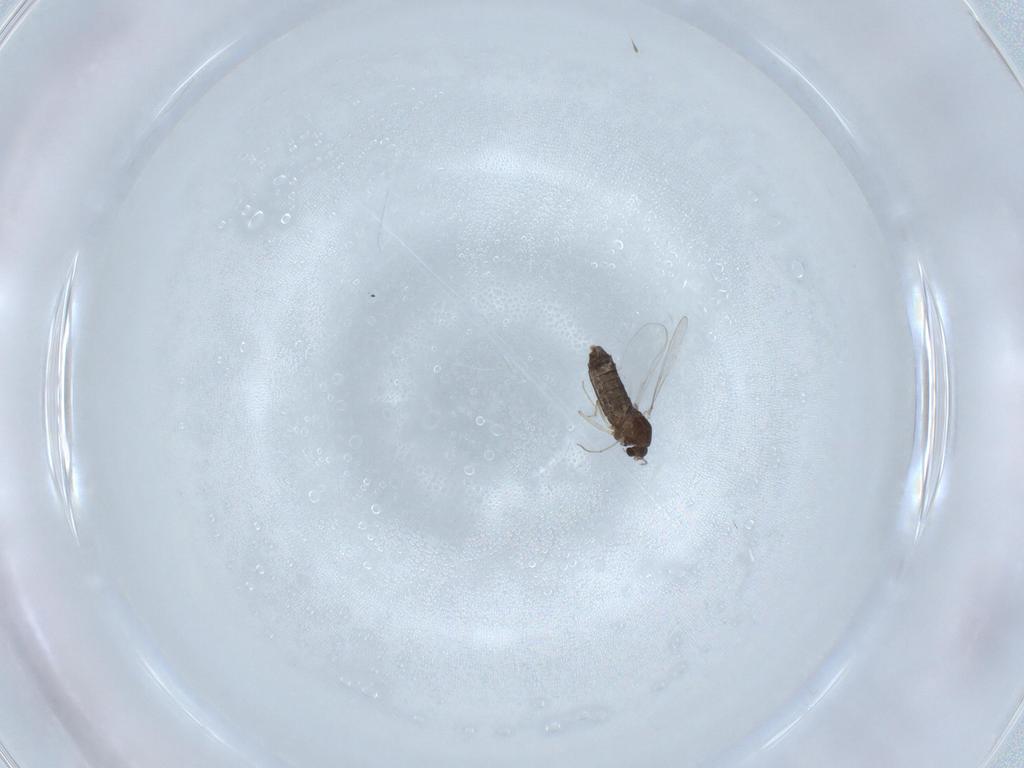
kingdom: Animalia
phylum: Arthropoda
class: Insecta
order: Diptera
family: Chironomidae
